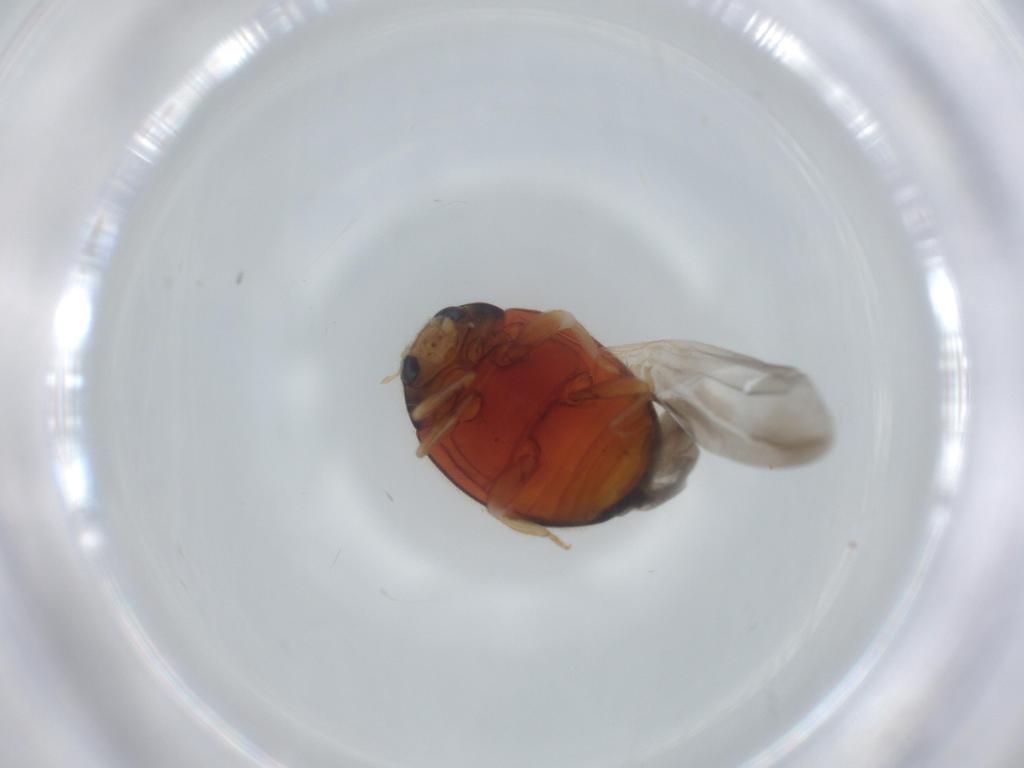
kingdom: Animalia
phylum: Arthropoda
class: Insecta
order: Coleoptera
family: Coccinellidae
